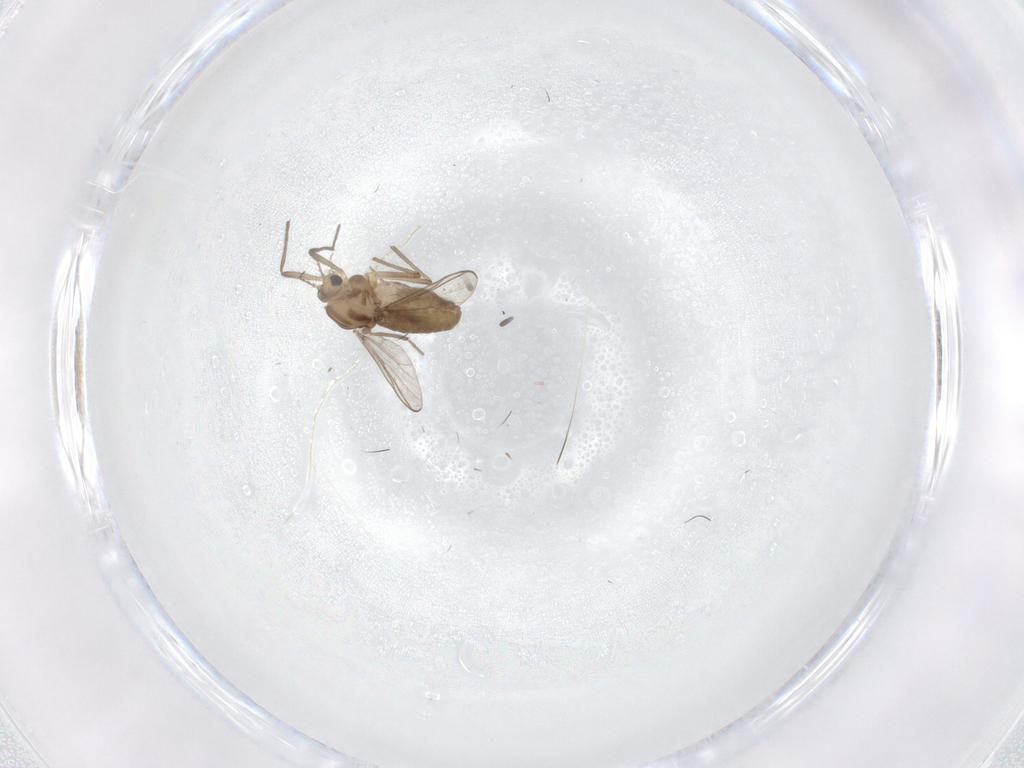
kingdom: Animalia
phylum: Arthropoda
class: Insecta
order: Diptera
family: Chironomidae
